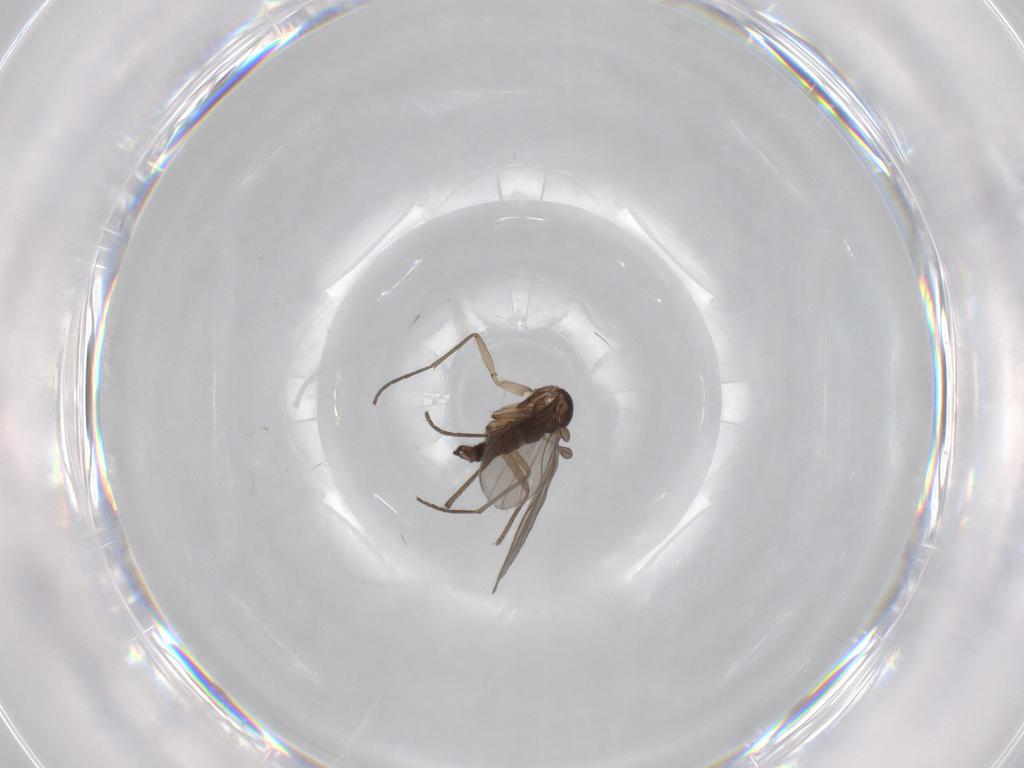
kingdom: Animalia
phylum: Arthropoda
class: Insecta
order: Diptera
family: Sciaridae
